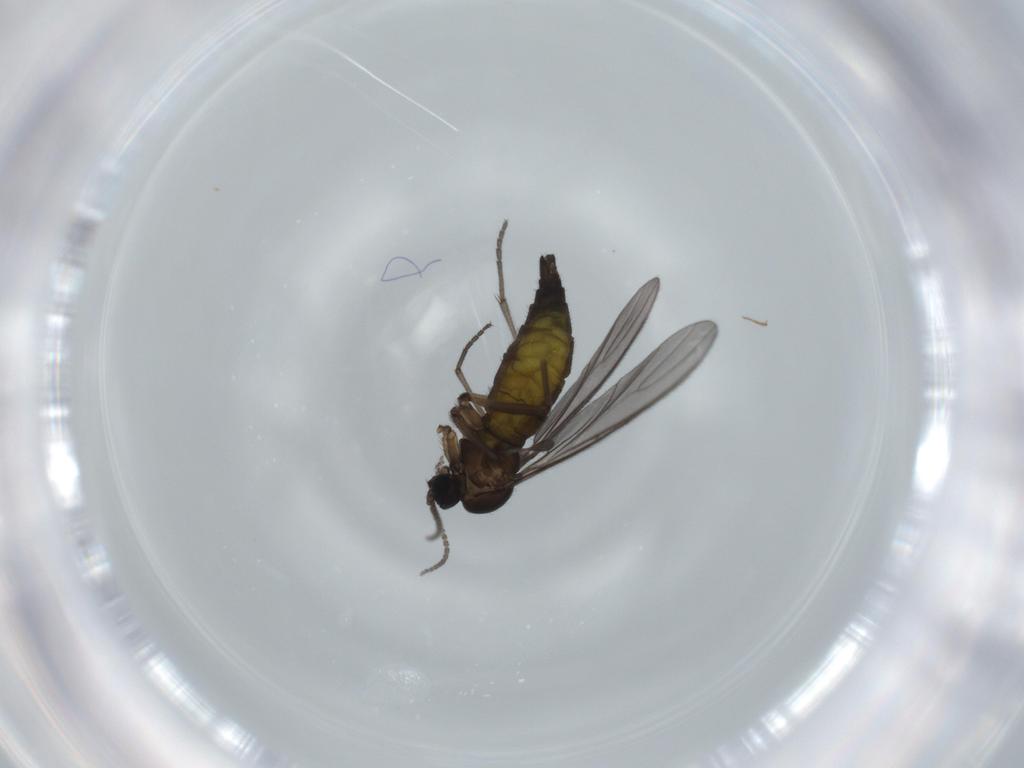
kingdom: Animalia
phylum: Arthropoda
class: Insecta
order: Diptera
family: Sciaridae
